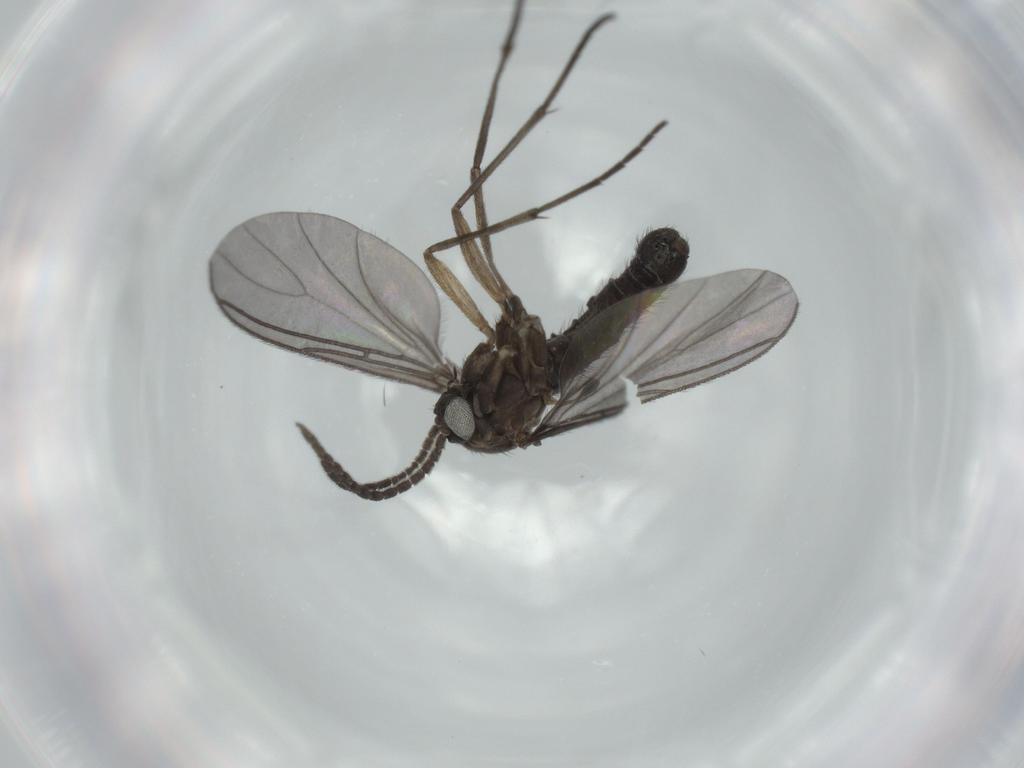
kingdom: Animalia
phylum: Arthropoda
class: Insecta
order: Diptera
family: Sciaridae
